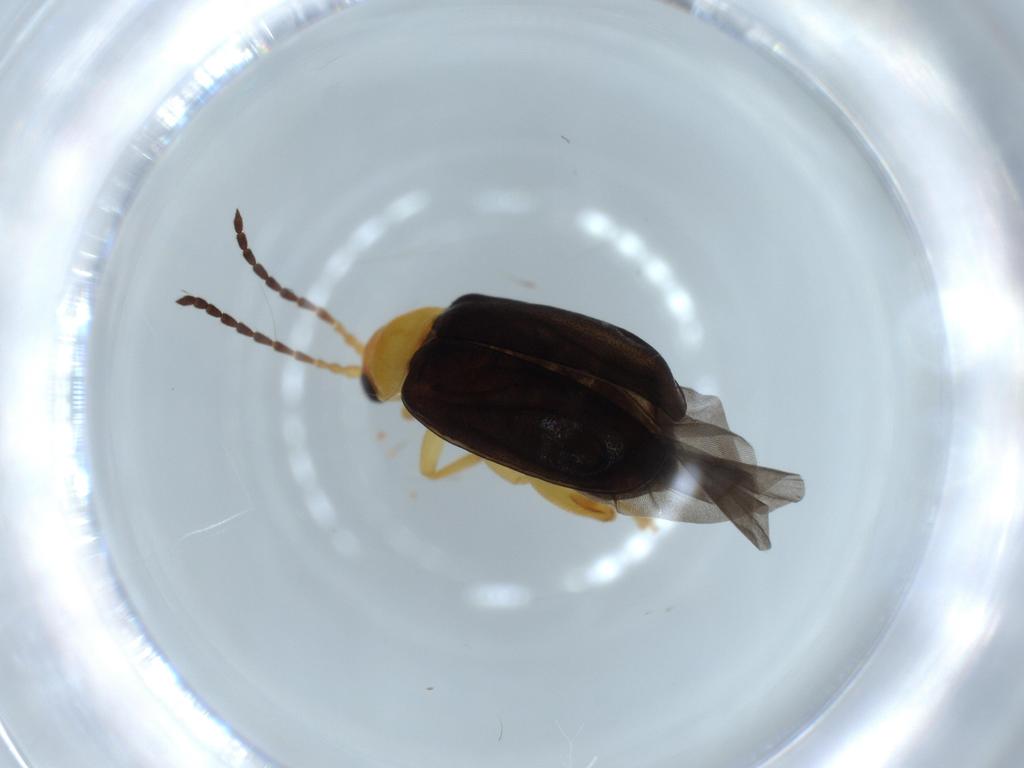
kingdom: Animalia
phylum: Arthropoda
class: Insecta
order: Coleoptera
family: Chrysomelidae
